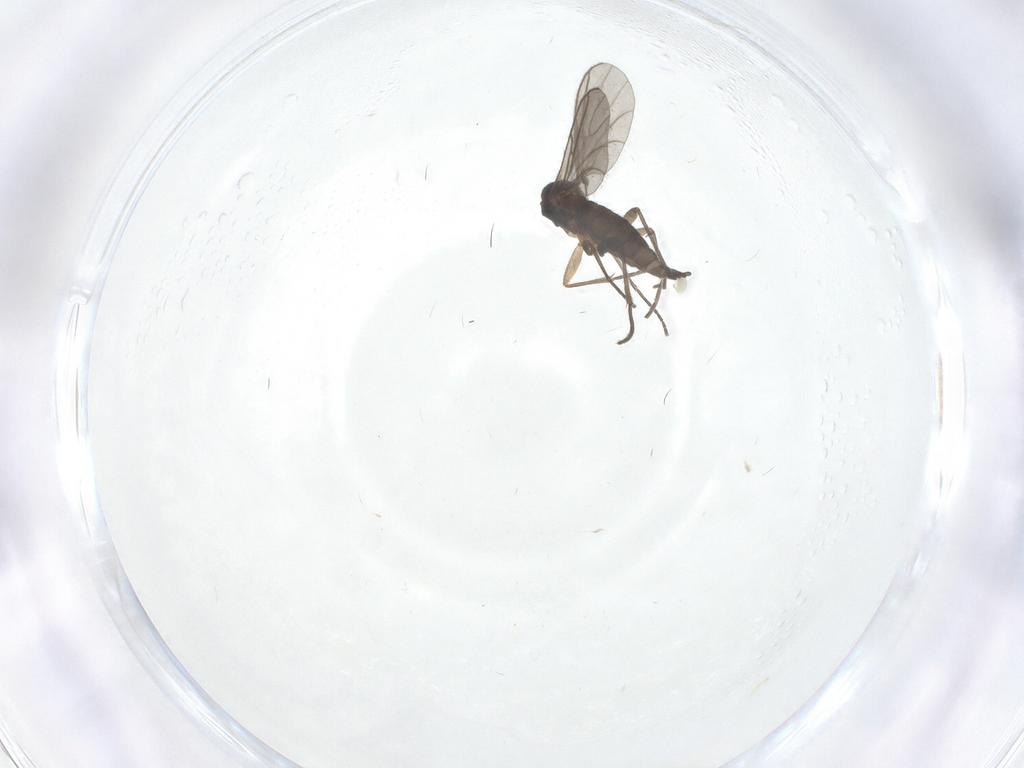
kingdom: Animalia
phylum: Arthropoda
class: Insecta
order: Diptera
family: Sciaridae
